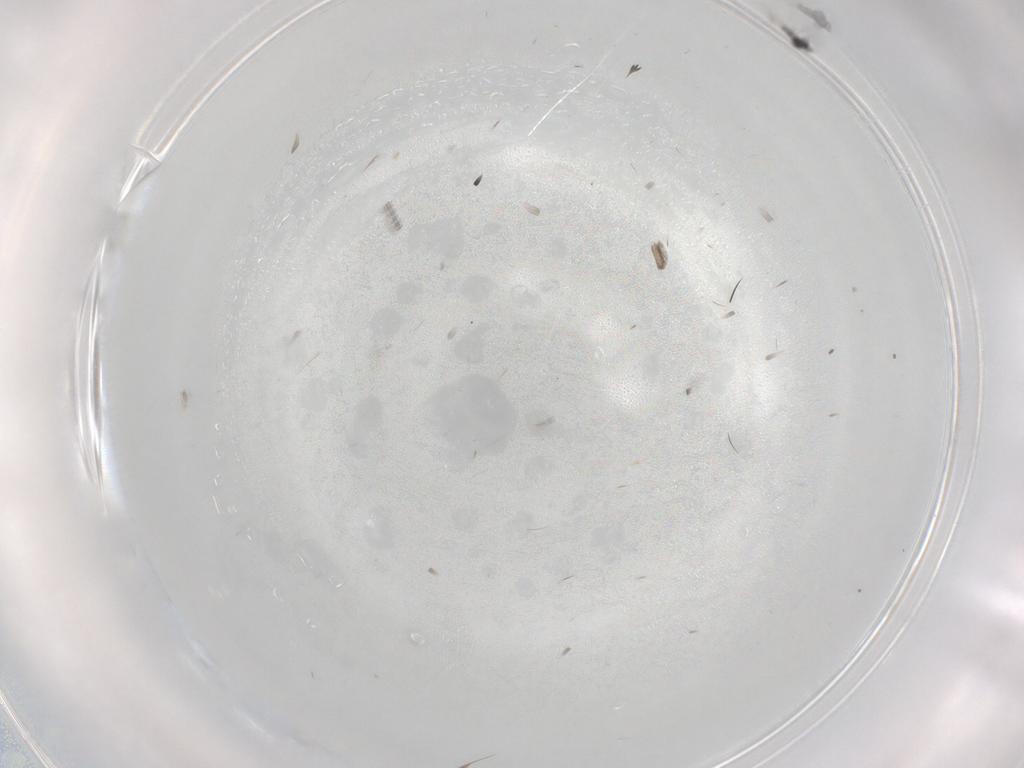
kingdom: Animalia
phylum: Arthropoda
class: Insecta
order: Diptera
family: Cecidomyiidae
